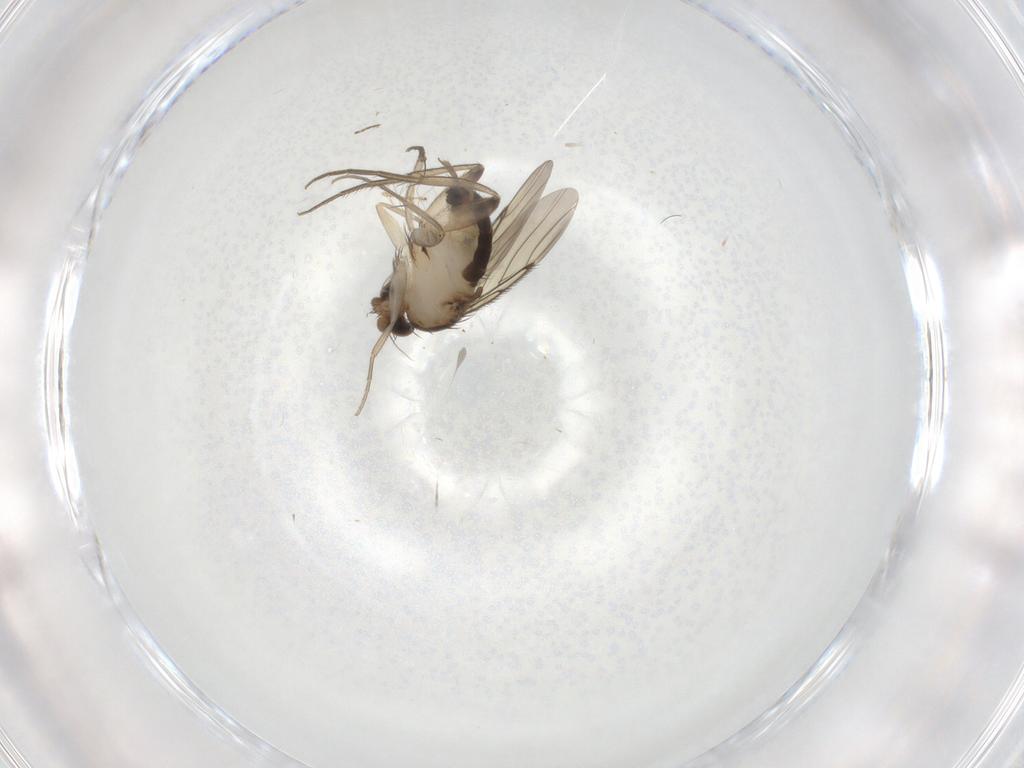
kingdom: Animalia
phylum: Arthropoda
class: Insecta
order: Diptera
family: Phoridae
